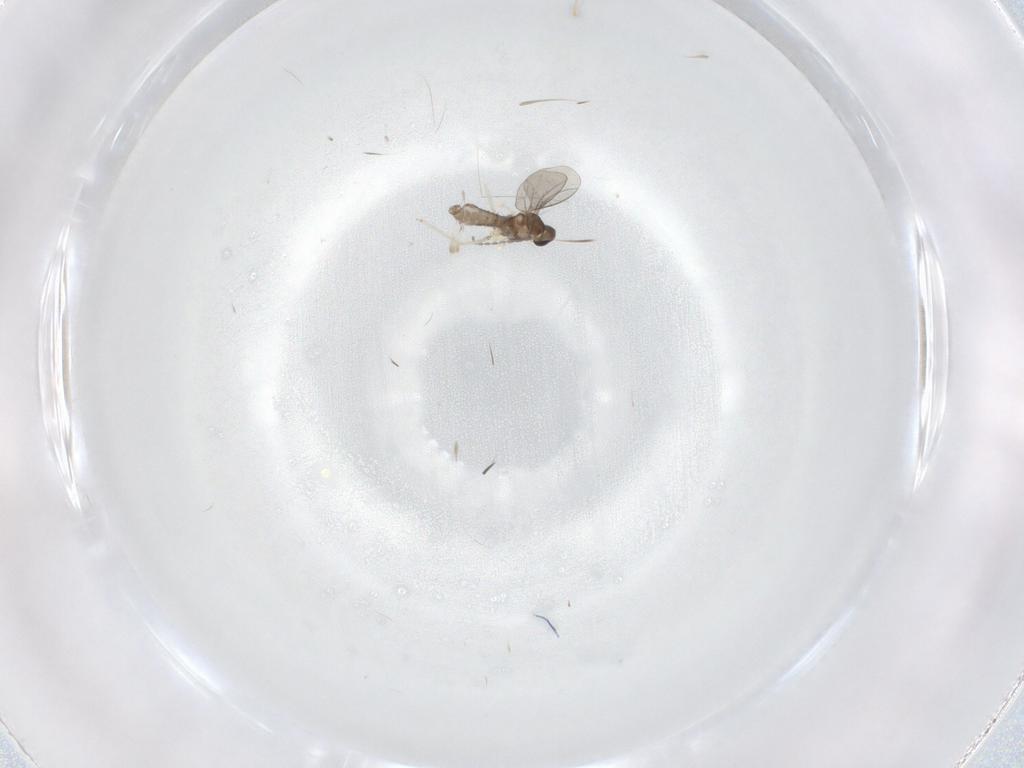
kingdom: Animalia
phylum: Arthropoda
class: Insecta
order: Diptera
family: Cecidomyiidae
